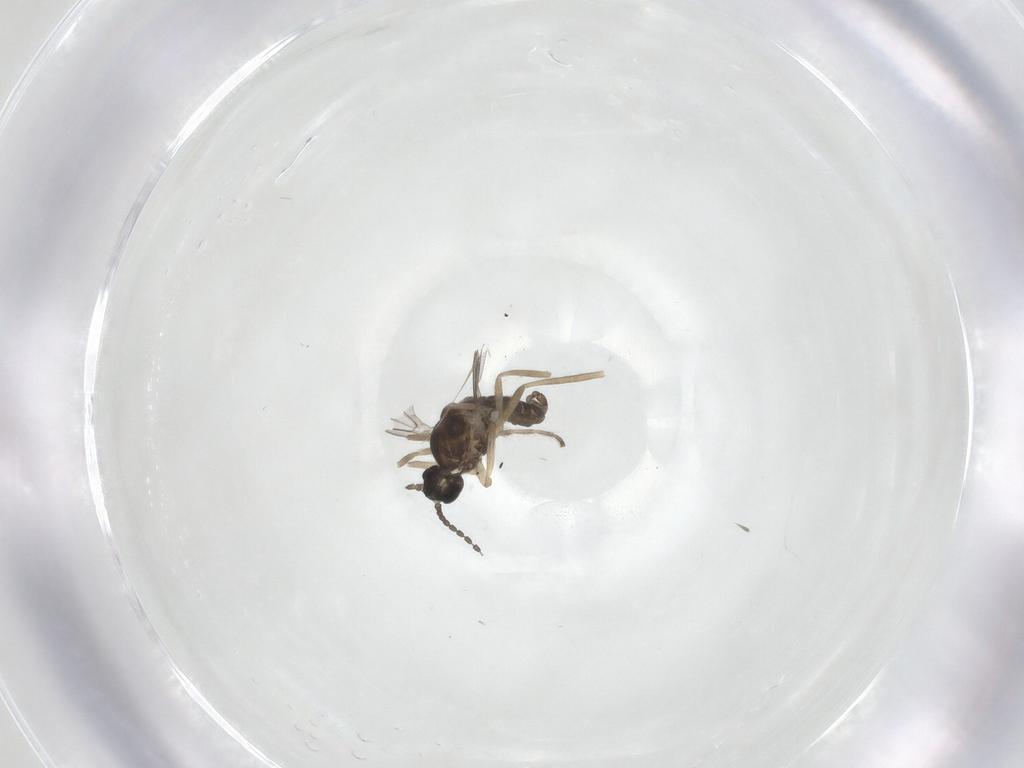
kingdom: Animalia
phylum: Arthropoda
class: Insecta
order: Diptera
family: Cecidomyiidae
